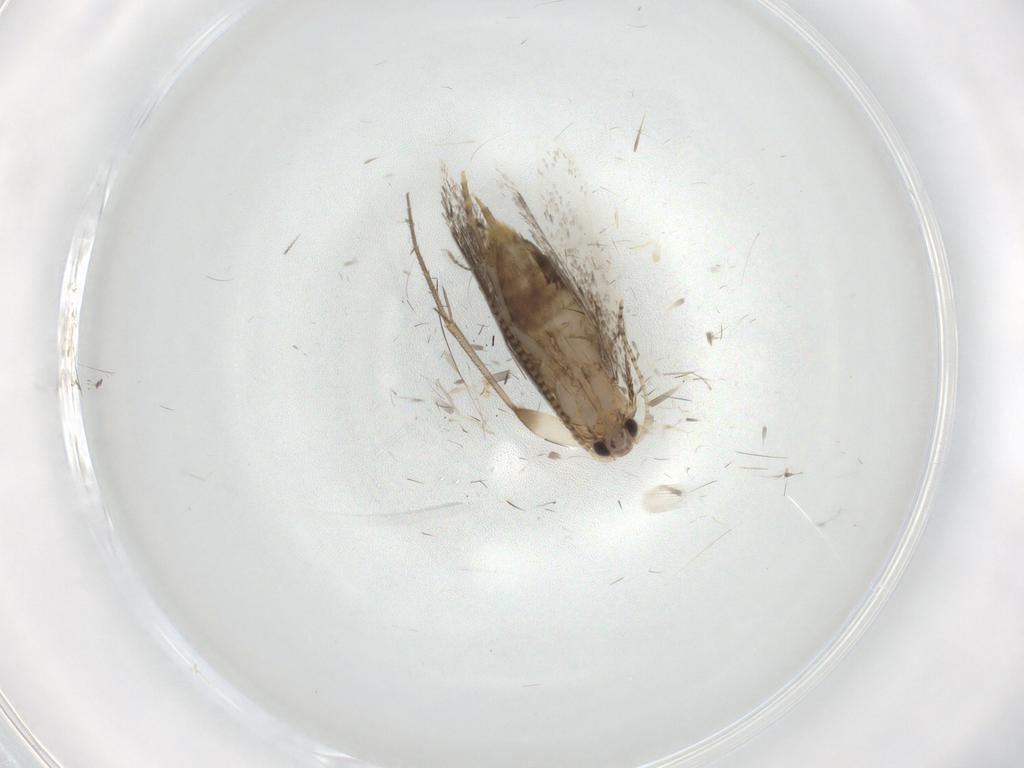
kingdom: Animalia
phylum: Arthropoda
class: Insecta
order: Lepidoptera
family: Tineidae
